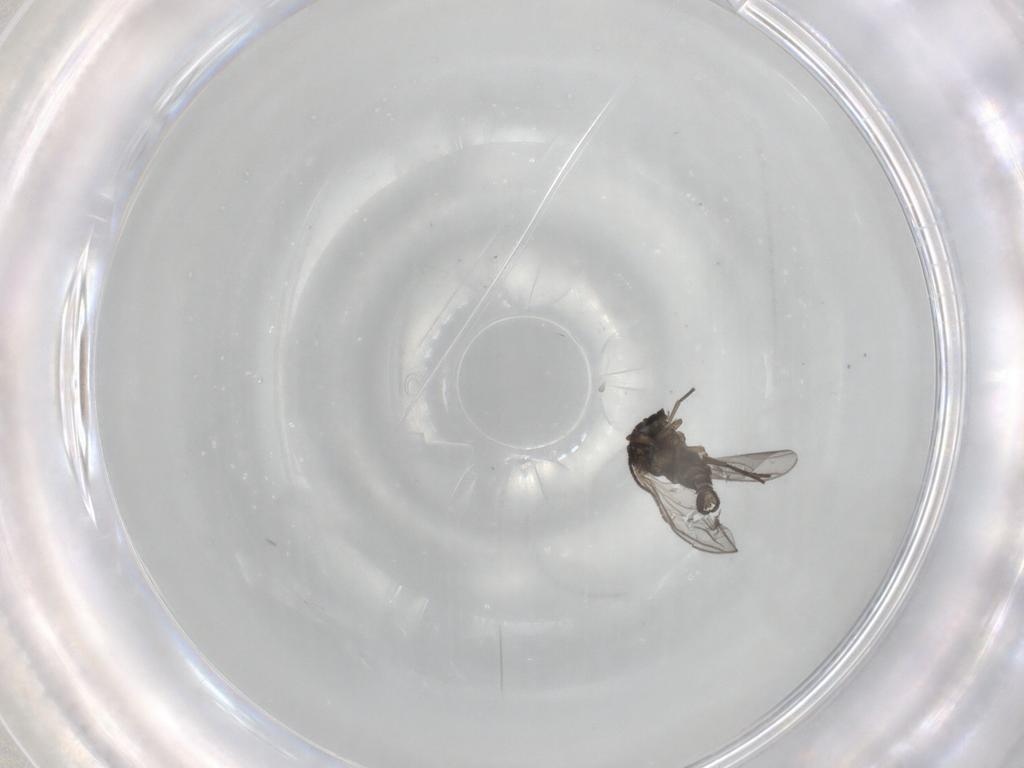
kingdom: Animalia
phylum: Arthropoda
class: Insecta
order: Diptera
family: Sciaridae
